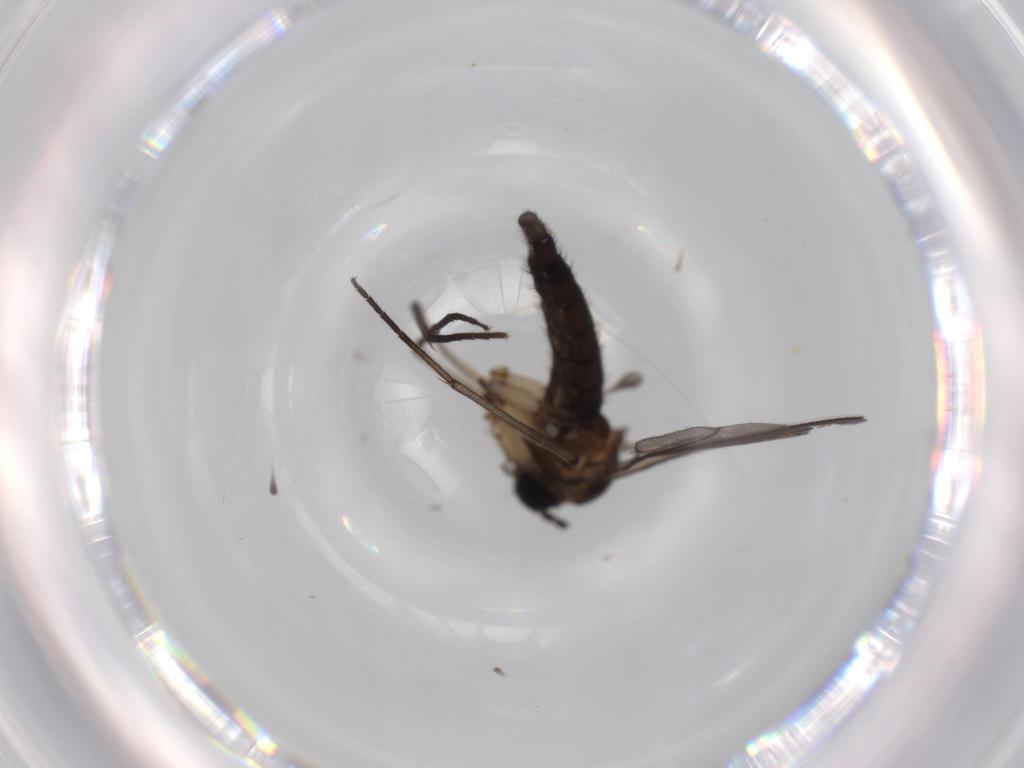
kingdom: Animalia
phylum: Arthropoda
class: Insecta
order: Diptera
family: Sciaridae
